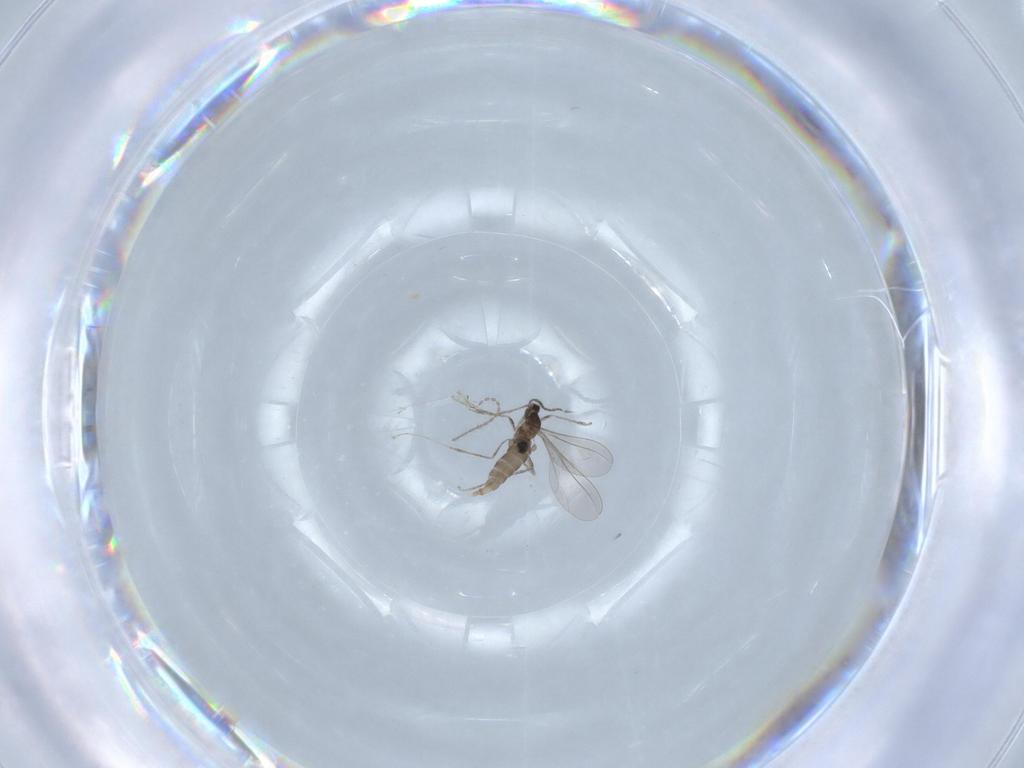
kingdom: Animalia
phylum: Arthropoda
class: Insecta
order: Diptera
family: Cecidomyiidae
